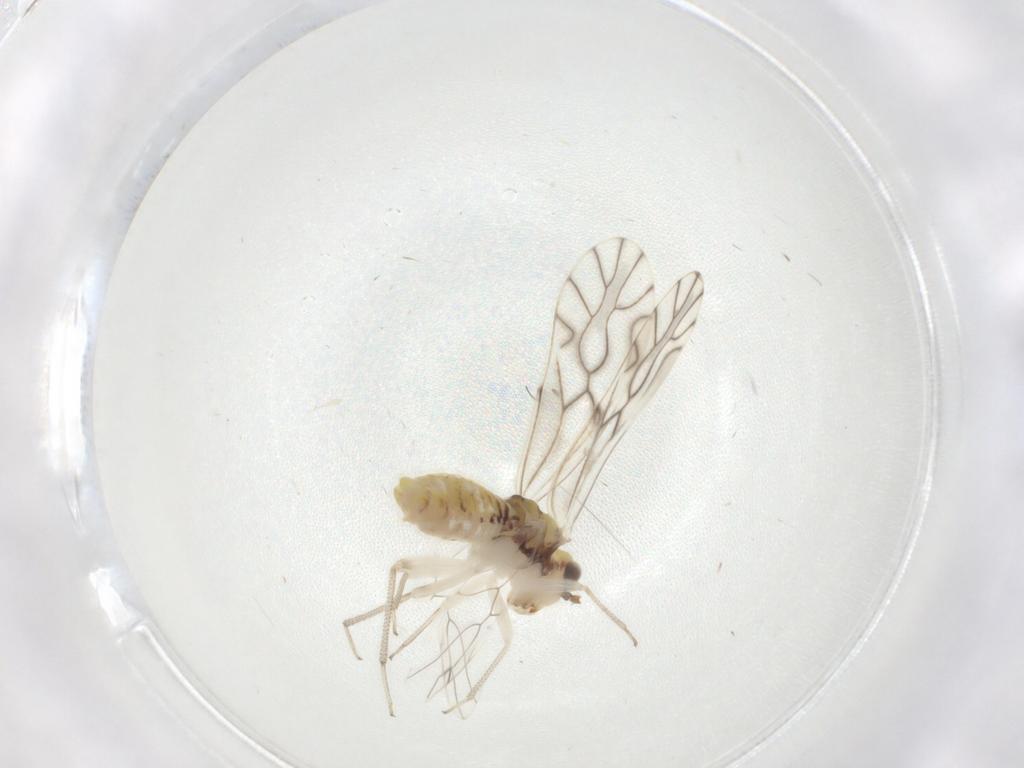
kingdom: Animalia
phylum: Arthropoda
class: Insecta
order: Psocodea
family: Caeciliusidae
